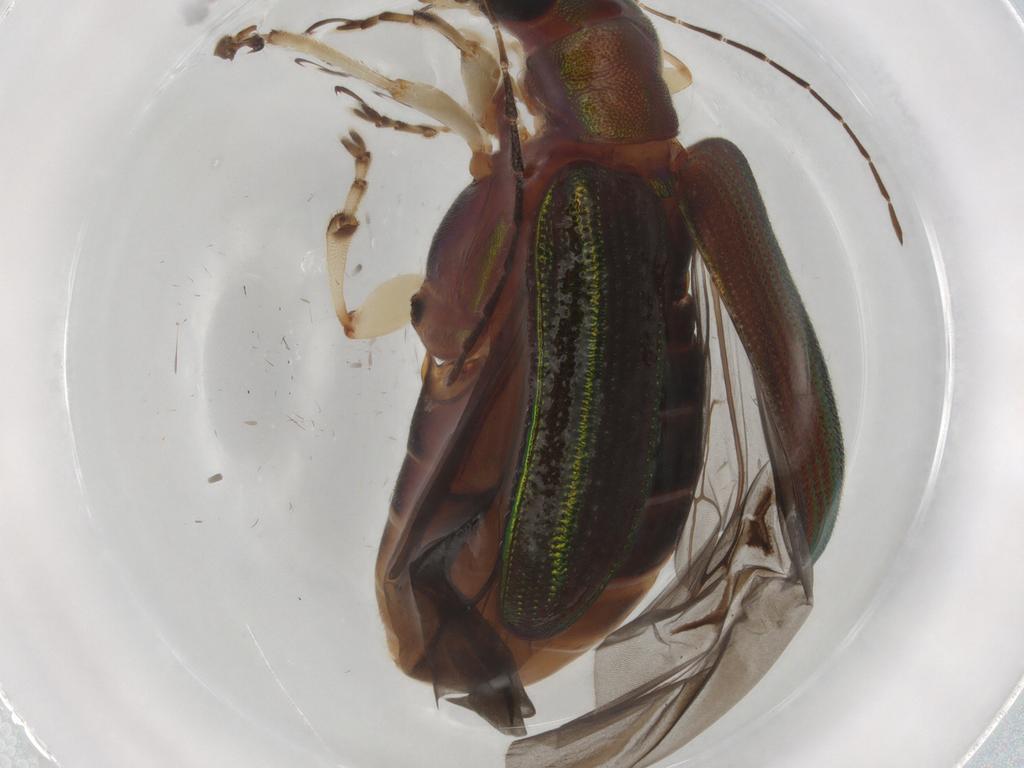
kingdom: Animalia
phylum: Arthropoda
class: Insecta
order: Coleoptera
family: Chrysomelidae
